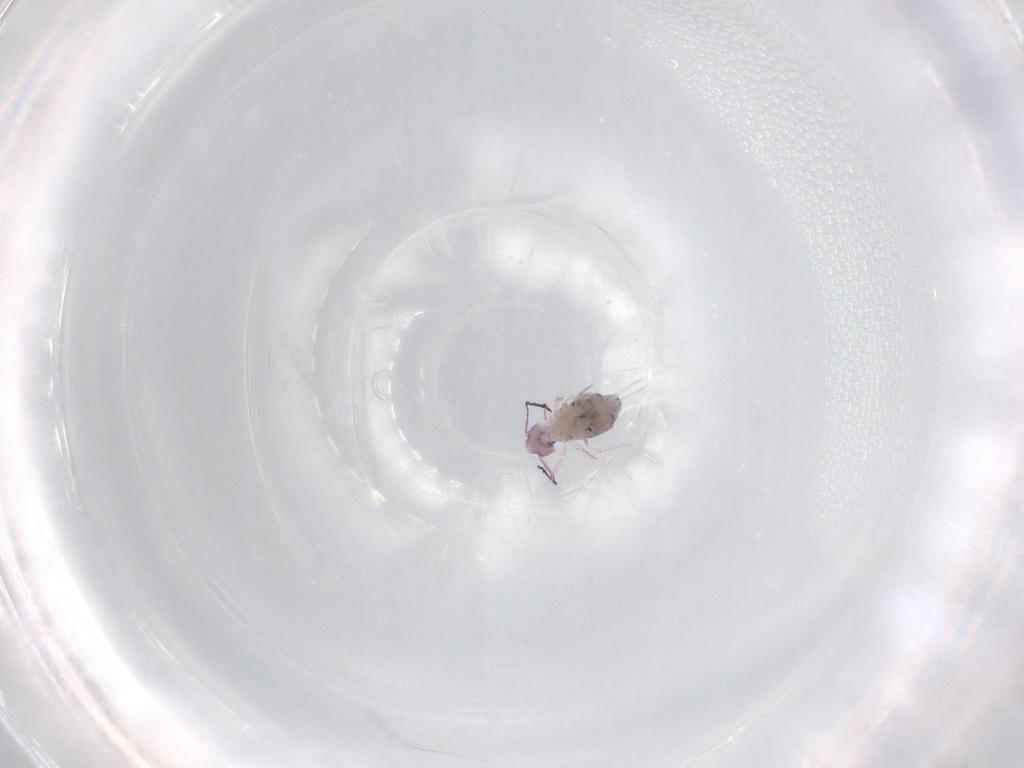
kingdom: Animalia
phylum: Arthropoda
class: Collembola
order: Symphypleona
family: Dicyrtomidae
